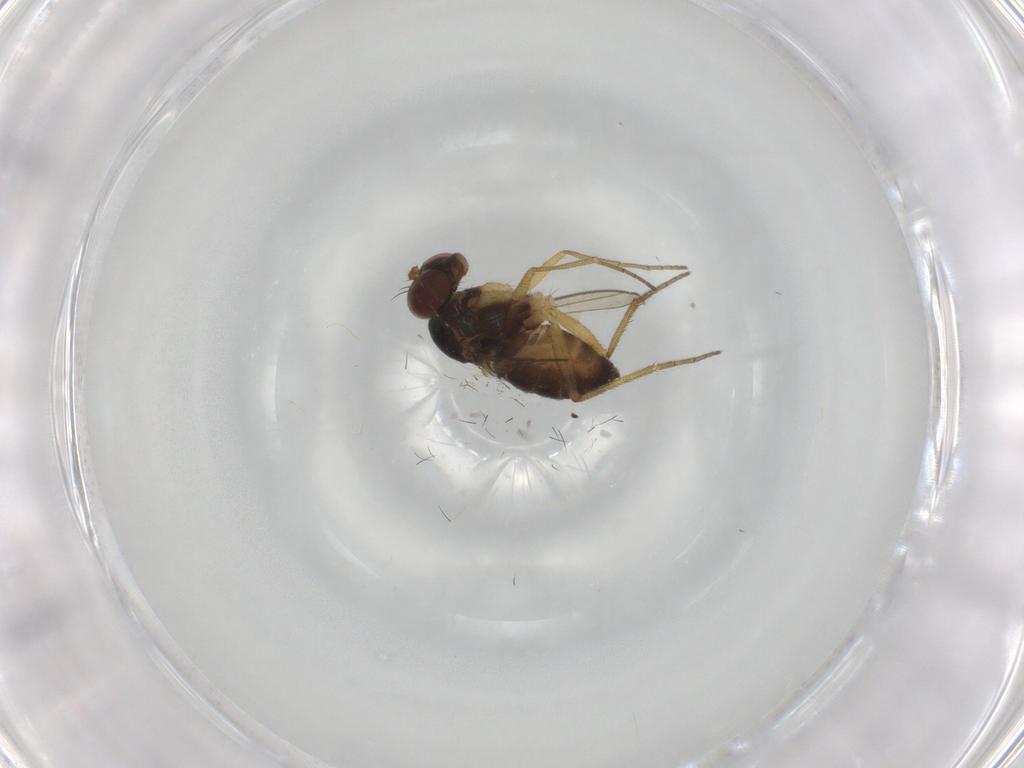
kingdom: Animalia
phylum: Arthropoda
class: Insecta
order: Diptera
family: Dolichopodidae
